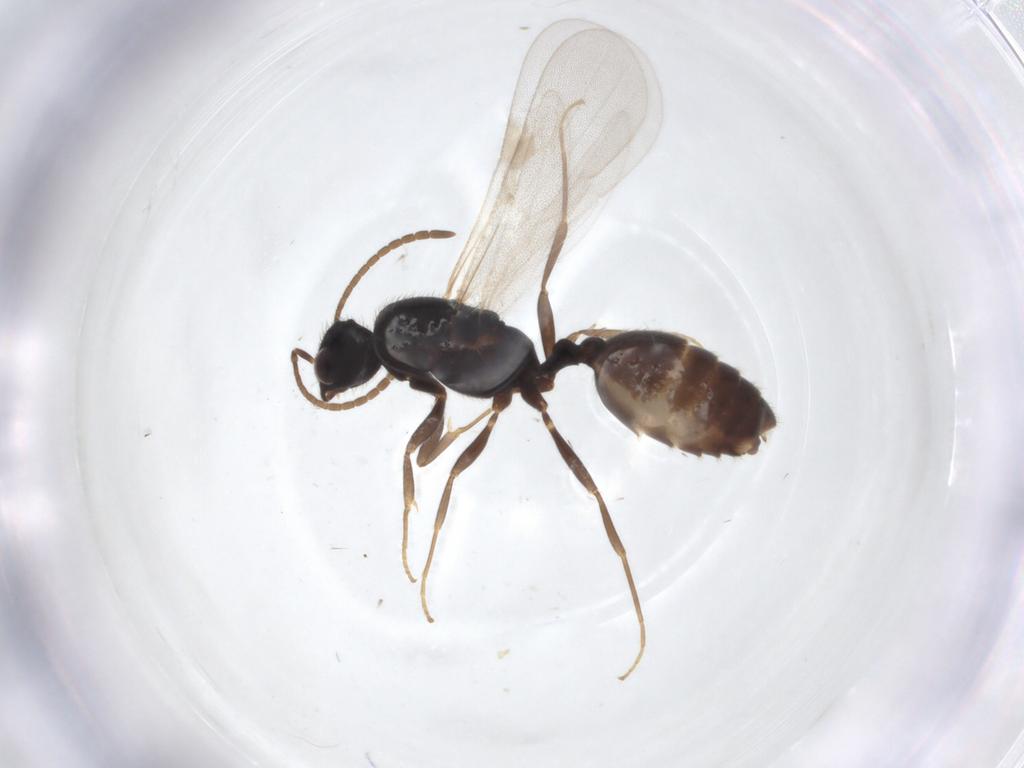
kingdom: Animalia
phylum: Arthropoda
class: Insecta
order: Hymenoptera
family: Formicidae
